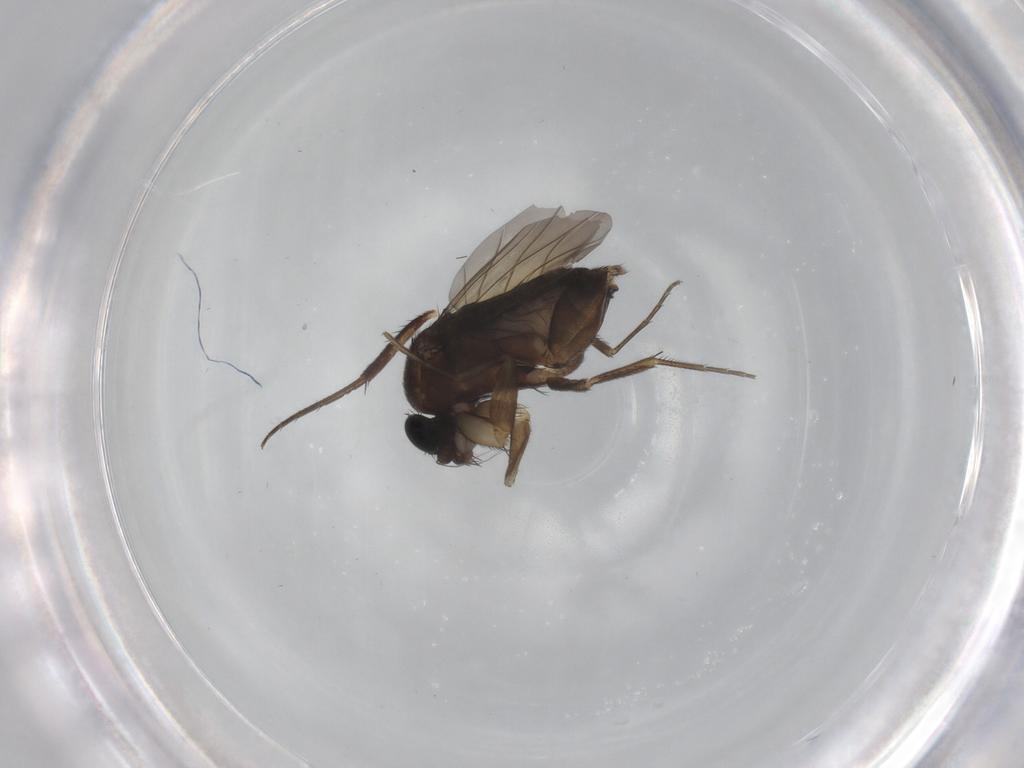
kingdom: Animalia
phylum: Arthropoda
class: Insecta
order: Diptera
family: Phoridae
